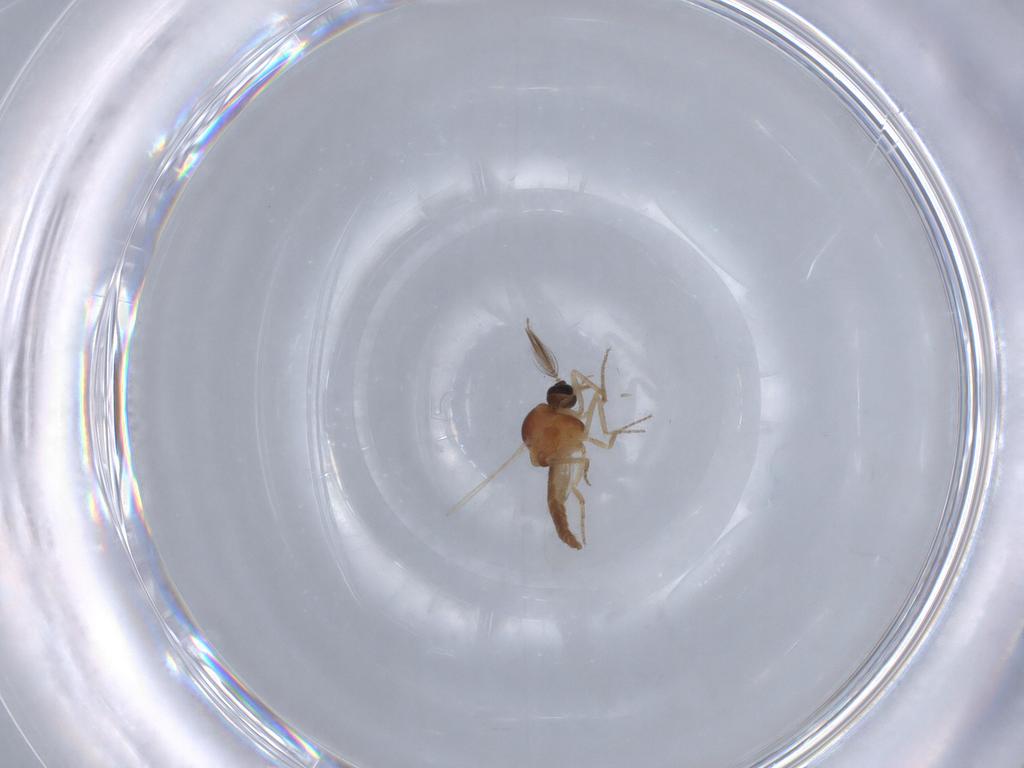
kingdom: Animalia
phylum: Arthropoda
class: Insecta
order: Diptera
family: Ceratopogonidae
